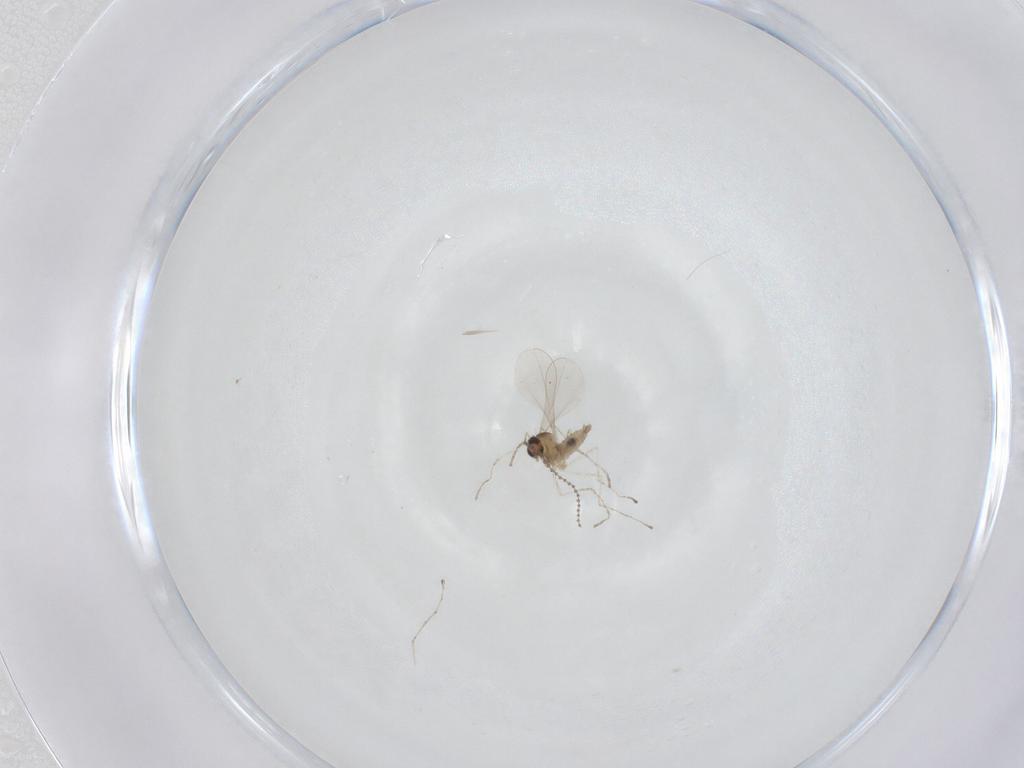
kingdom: Animalia
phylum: Arthropoda
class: Insecta
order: Diptera
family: Cecidomyiidae
